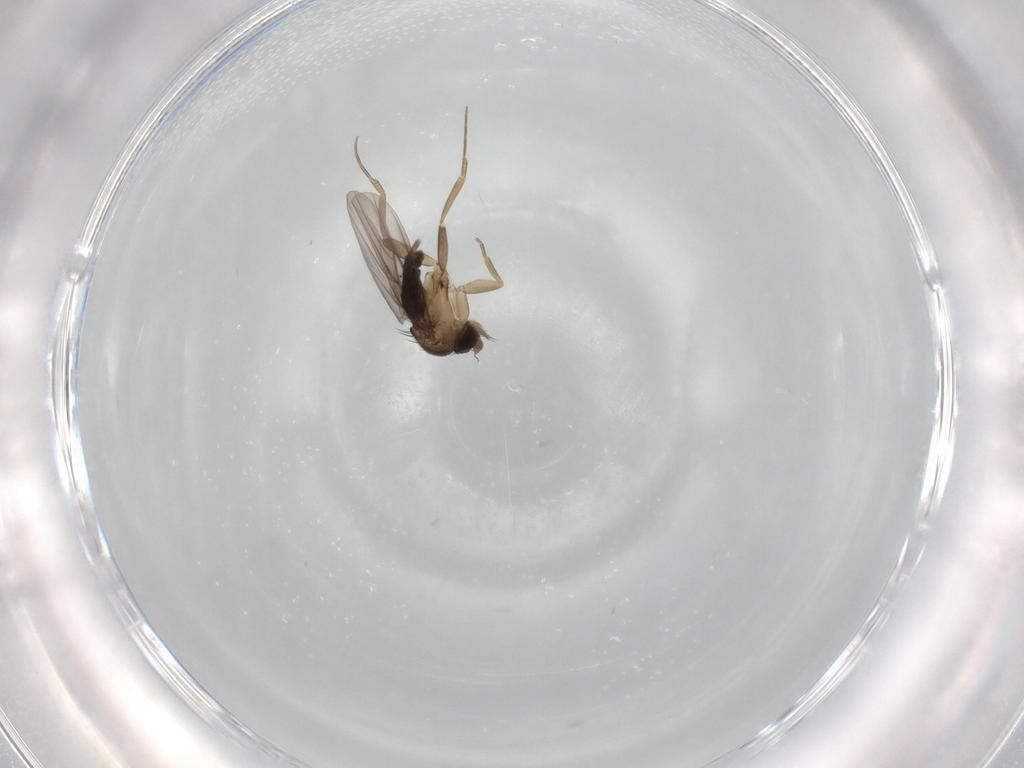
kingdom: Animalia
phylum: Arthropoda
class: Insecta
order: Diptera
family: Phoridae
